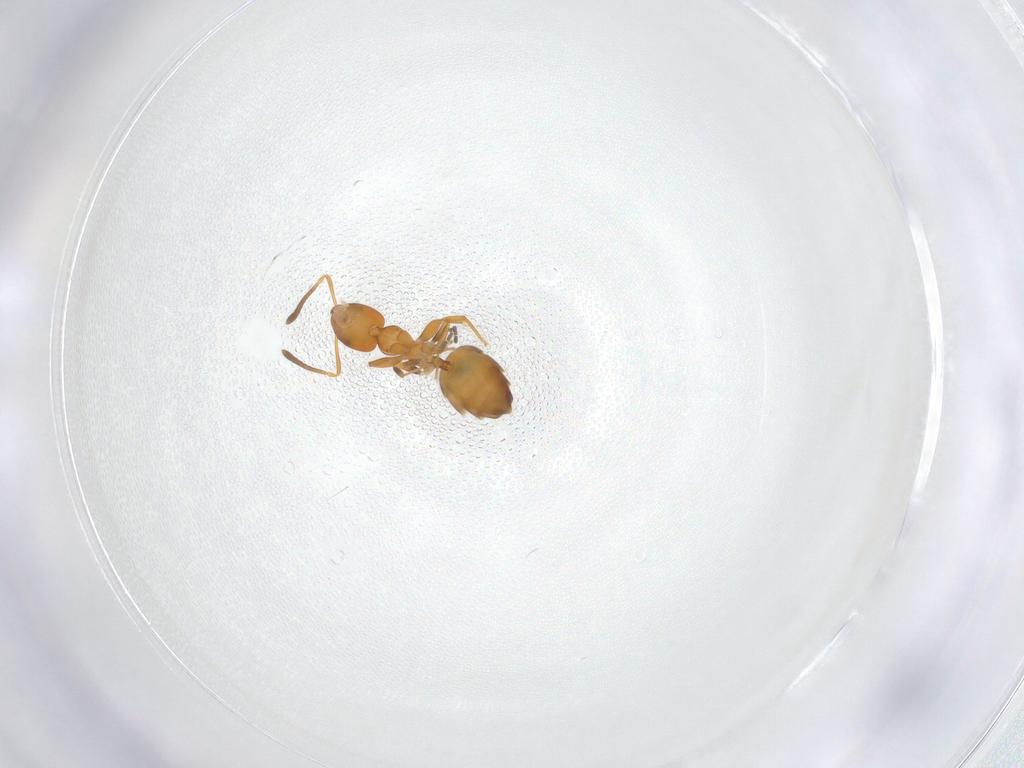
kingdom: Animalia
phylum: Arthropoda
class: Insecta
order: Hymenoptera
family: Formicidae
